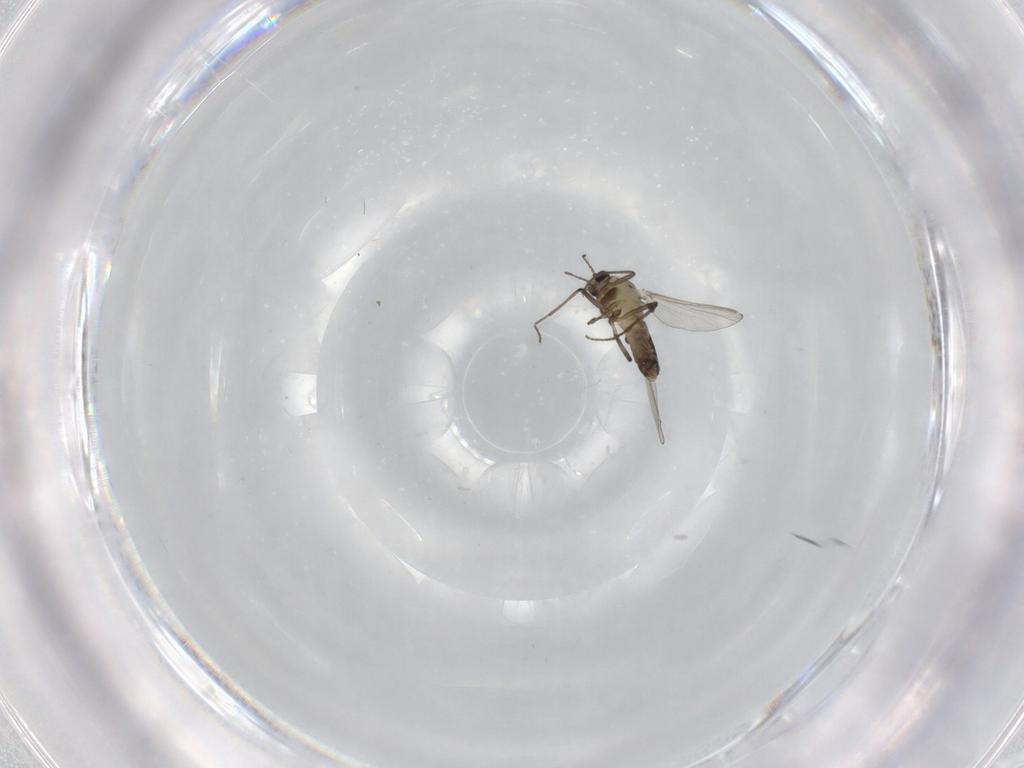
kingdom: Animalia
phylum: Arthropoda
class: Insecta
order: Diptera
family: Chironomidae
